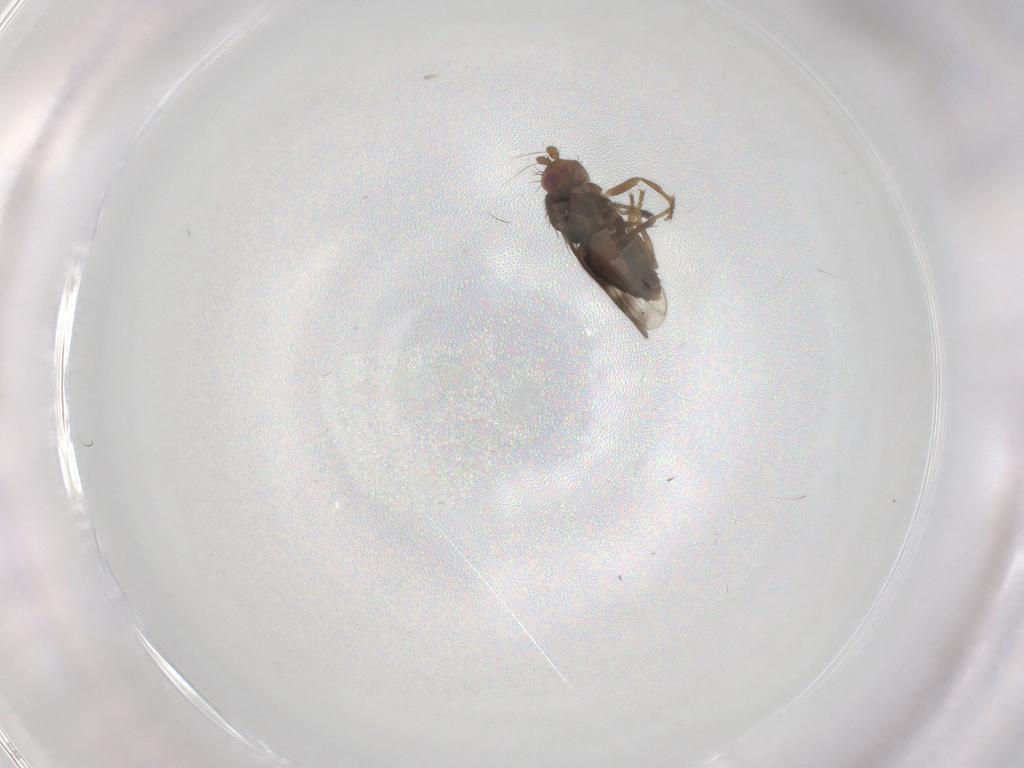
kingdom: Animalia
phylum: Arthropoda
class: Insecta
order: Diptera
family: Sphaeroceridae
